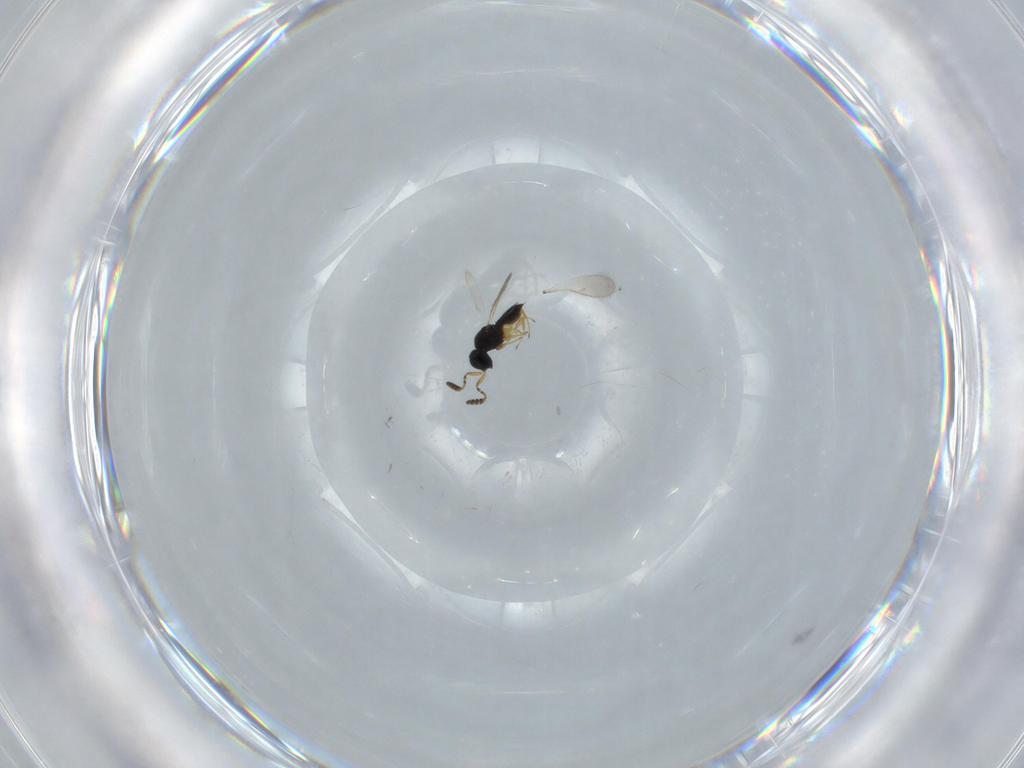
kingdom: Animalia
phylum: Arthropoda
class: Insecta
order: Hymenoptera
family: Scelionidae
